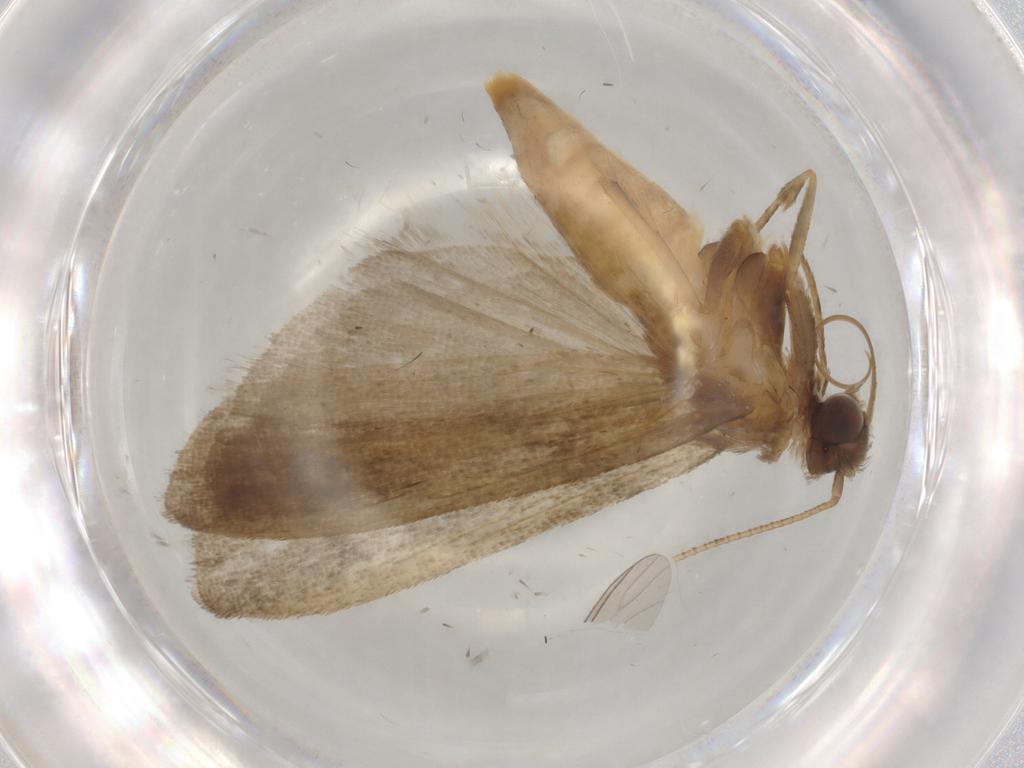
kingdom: Animalia
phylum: Arthropoda
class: Insecta
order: Lepidoptera
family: Noctuidae
